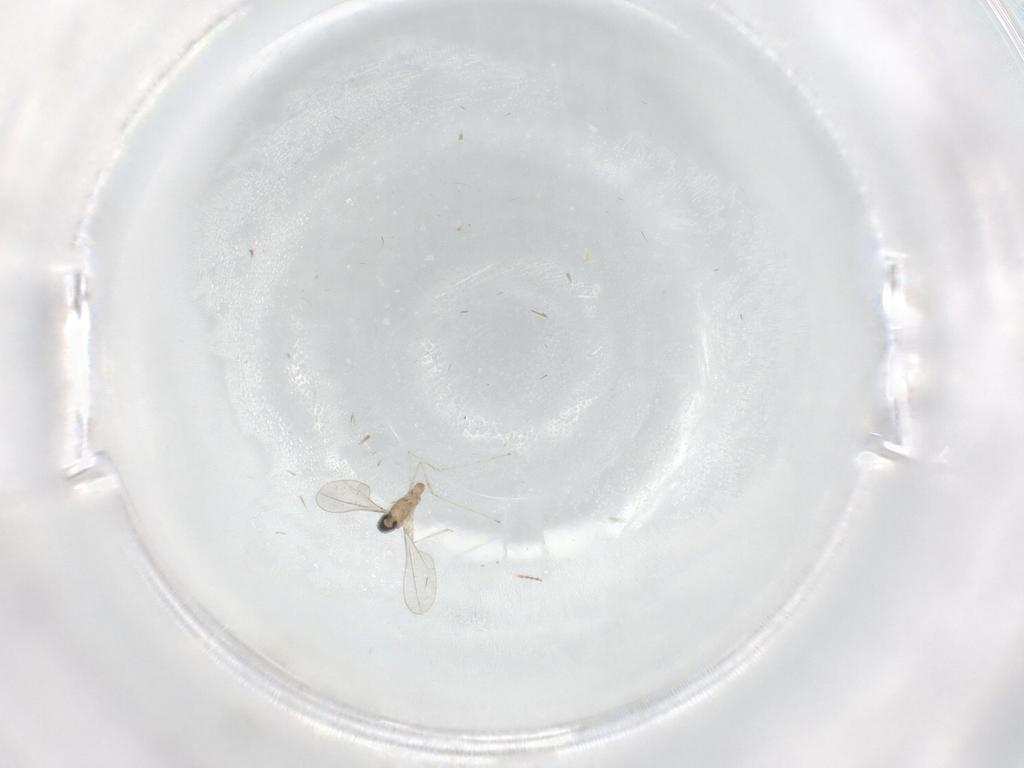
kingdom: Animalia
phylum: Arthropoda
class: Insecta
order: Diptera
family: Cecidomyiidae
